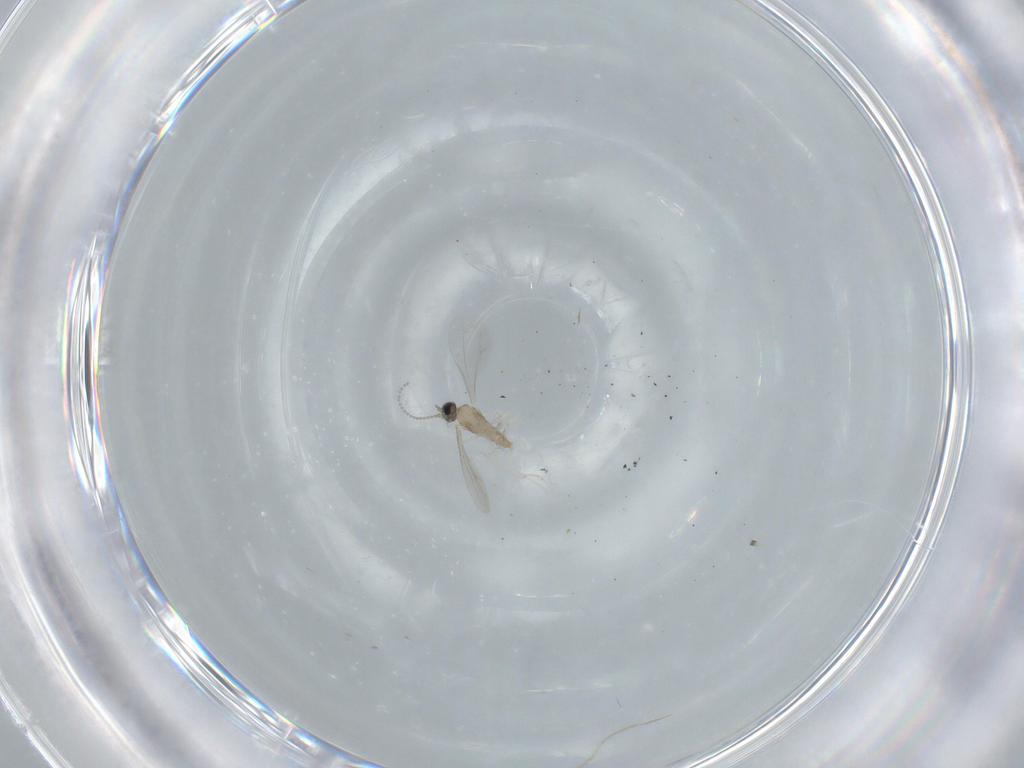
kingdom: Animalia
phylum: Arthropoda
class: Insecta
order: Diptera
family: Cecidomyiidae
